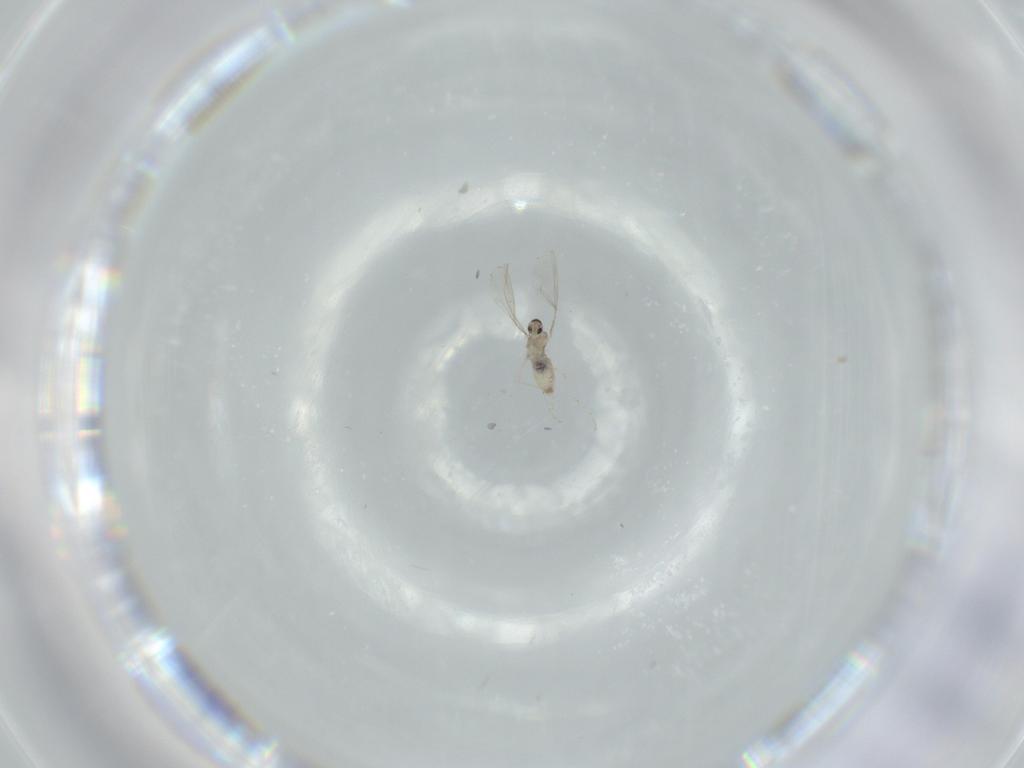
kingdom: Animalia
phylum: Arthropoda
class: Insecta
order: Diptera
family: Cecidomyiidae
